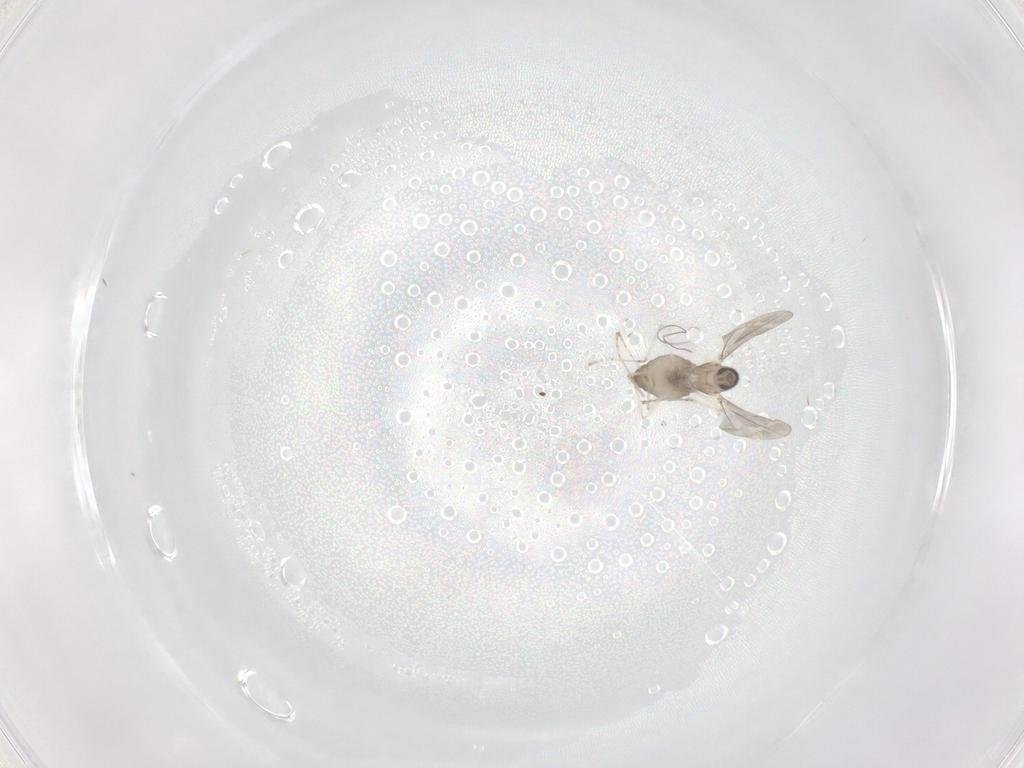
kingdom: Animalia
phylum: Arthropoda
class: Insecta
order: Diptera
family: Cecidomyiidae
